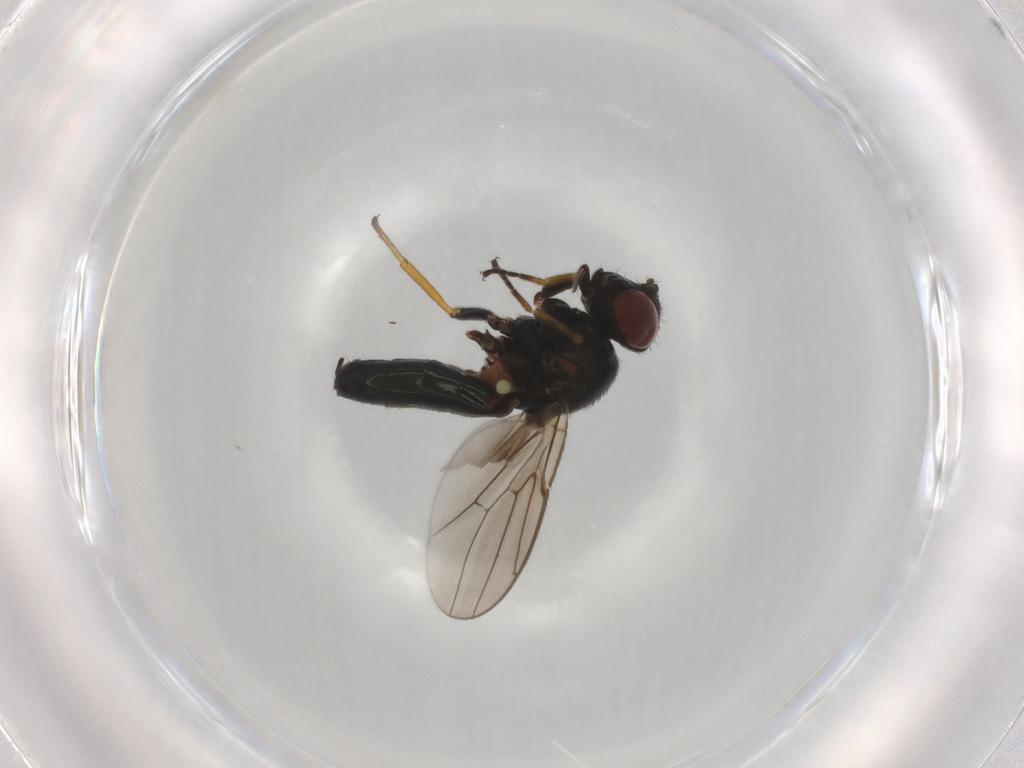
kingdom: Animalia
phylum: Arthropoda
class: Insecta
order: Diptera
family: Chloropidae
